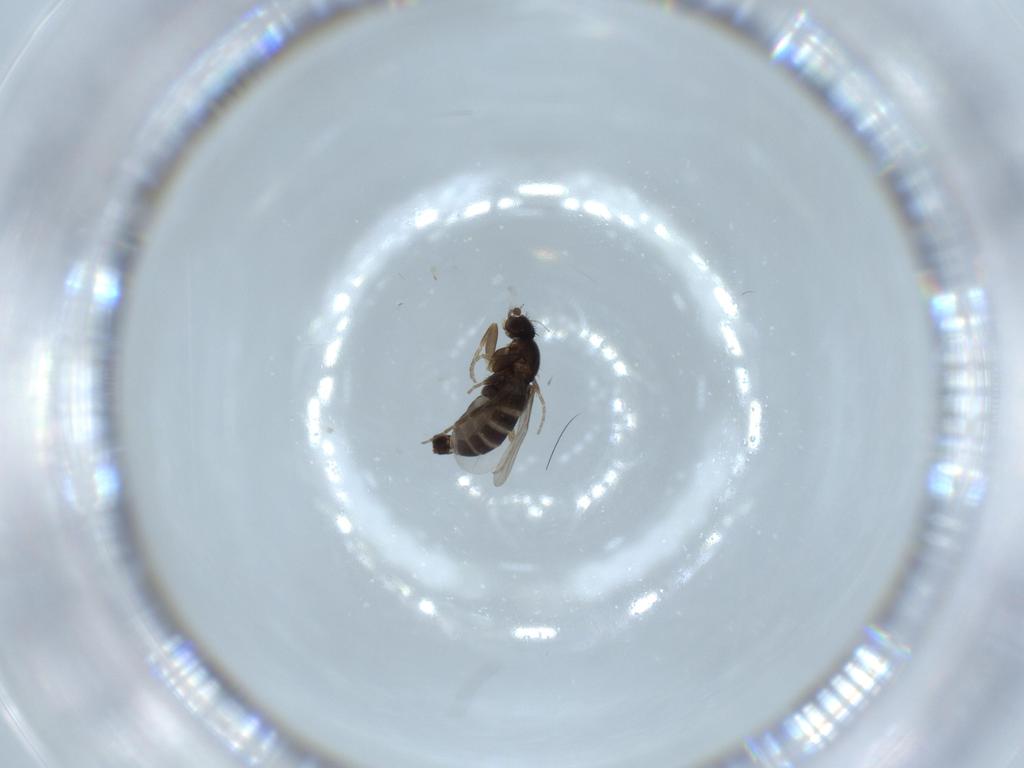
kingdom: Animalia
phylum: Arthropoda
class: Insecta
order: Diptera
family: Phoridae
